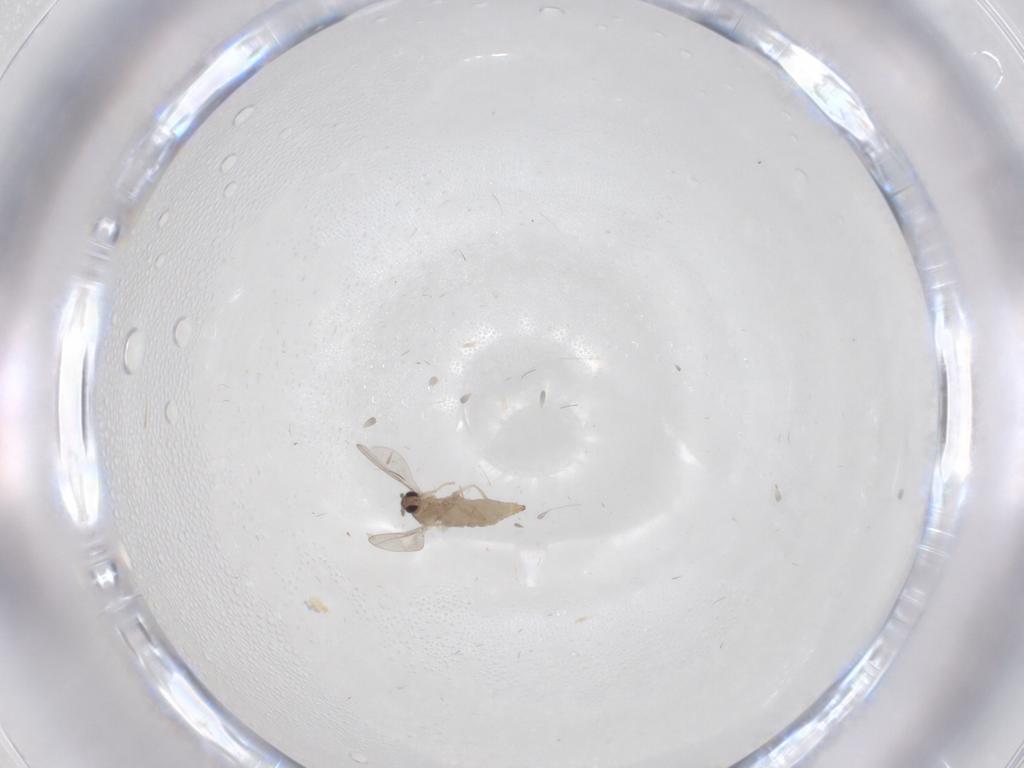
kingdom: Animalia
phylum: Arthropoda
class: Insecta
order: Diptera
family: Cecidomyiidae
